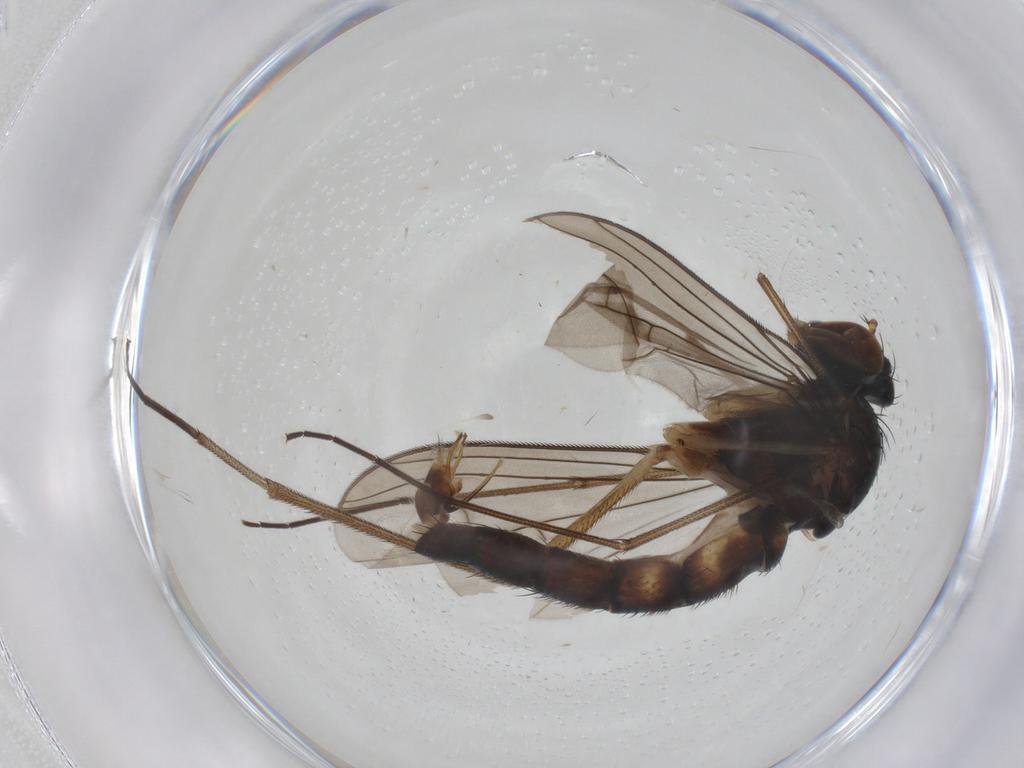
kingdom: Animalia
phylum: Arthropoda
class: Insecta
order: Diptera
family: Dolichopodidae
